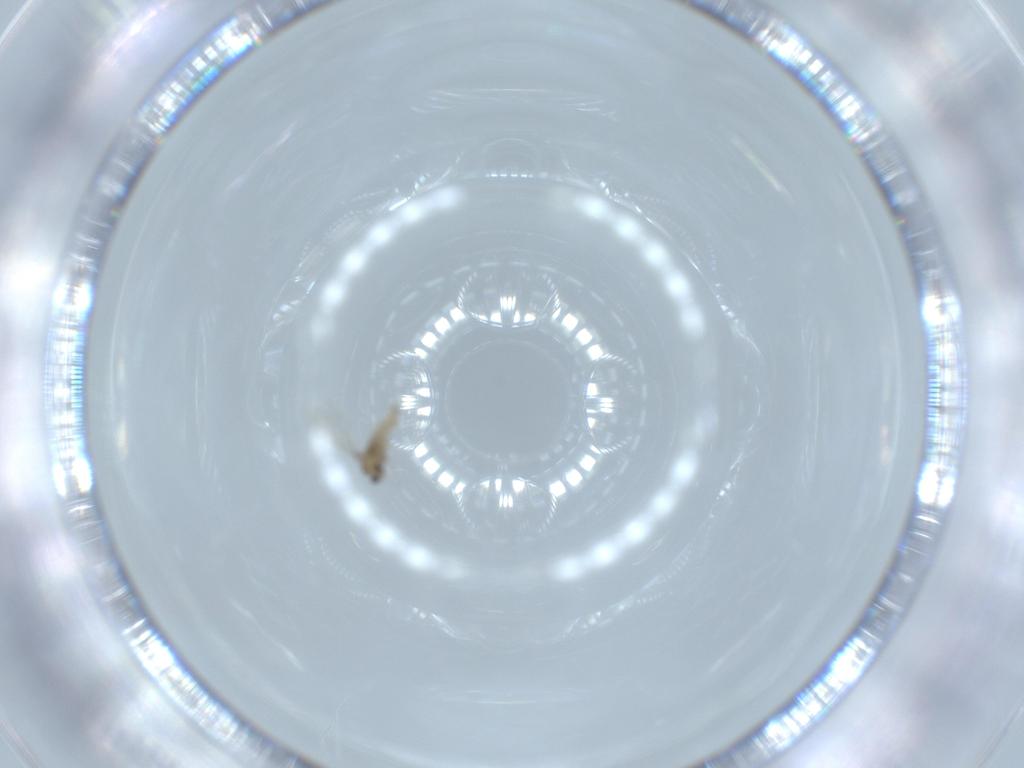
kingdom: Animalia
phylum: Arthropoda
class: Insecta
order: Diptera
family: Cecidomyiidae
